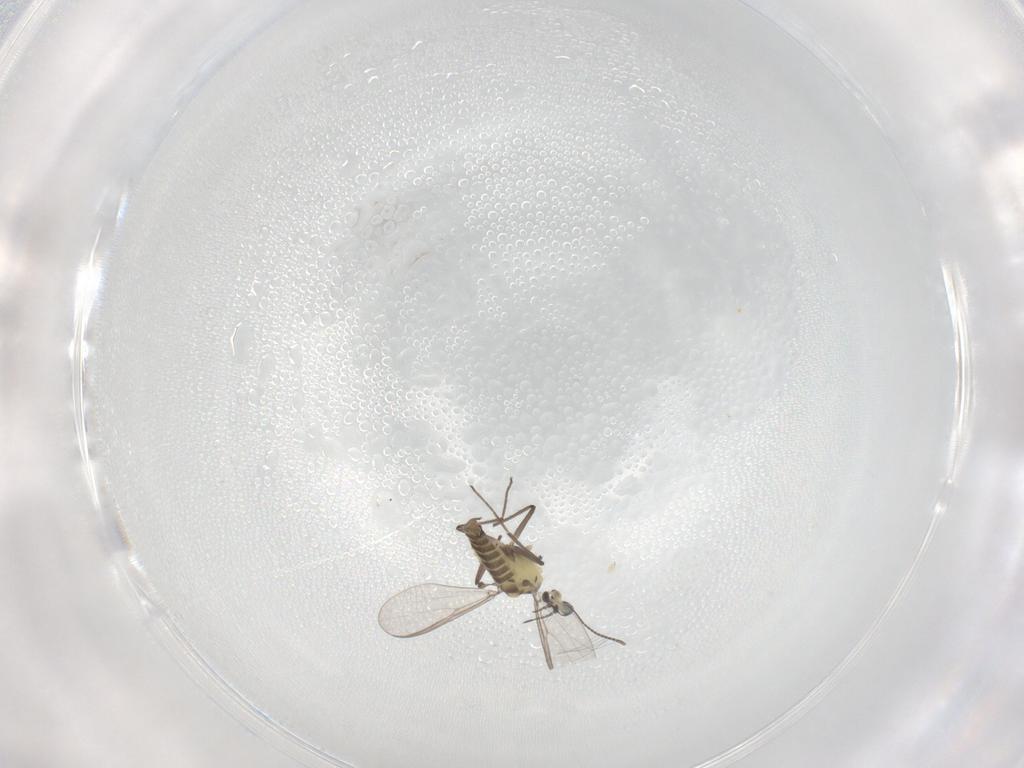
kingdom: Animalia
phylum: Arthropoda
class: Insecta
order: Diptera
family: Chironomidae
